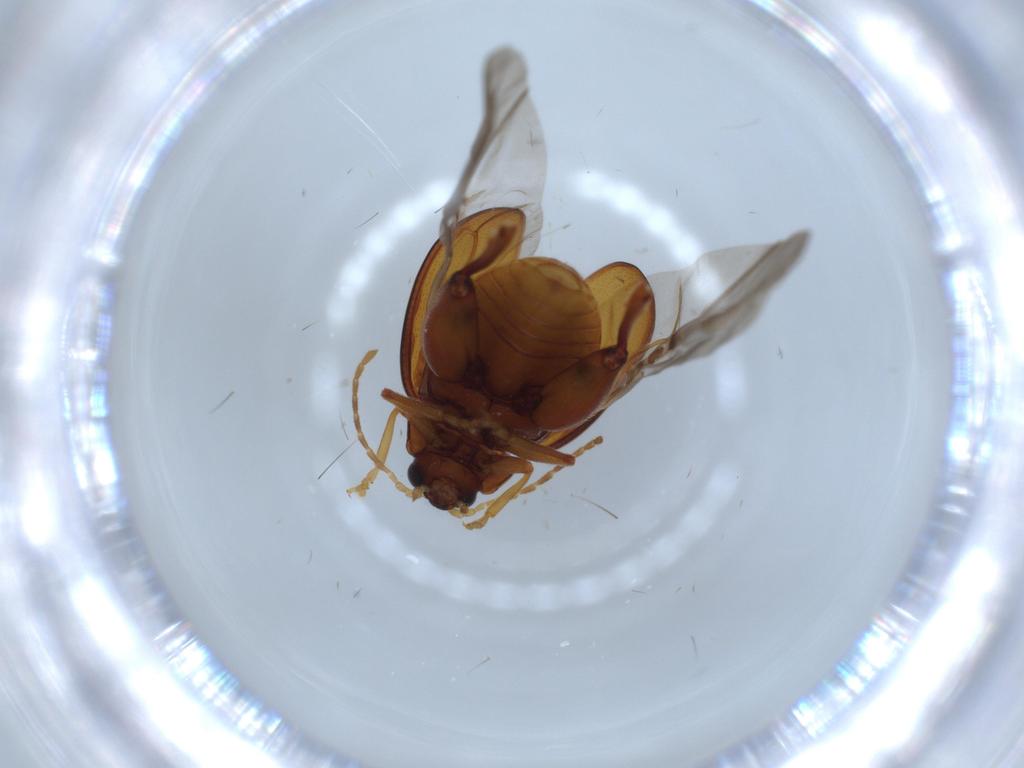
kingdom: Animalia
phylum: Arthropoda
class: Insecta
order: Coleoptera
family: Chrysomelidae
